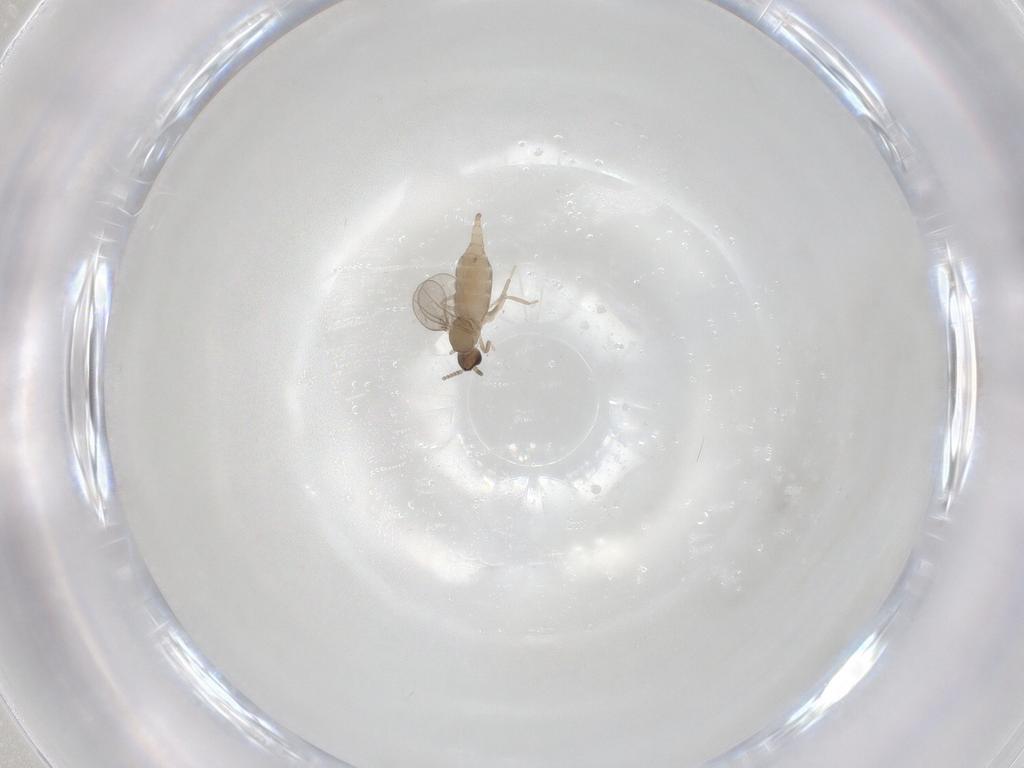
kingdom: Animalia
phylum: Arthropoda
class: Insecta
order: Diptera
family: Cecidomyiidae
